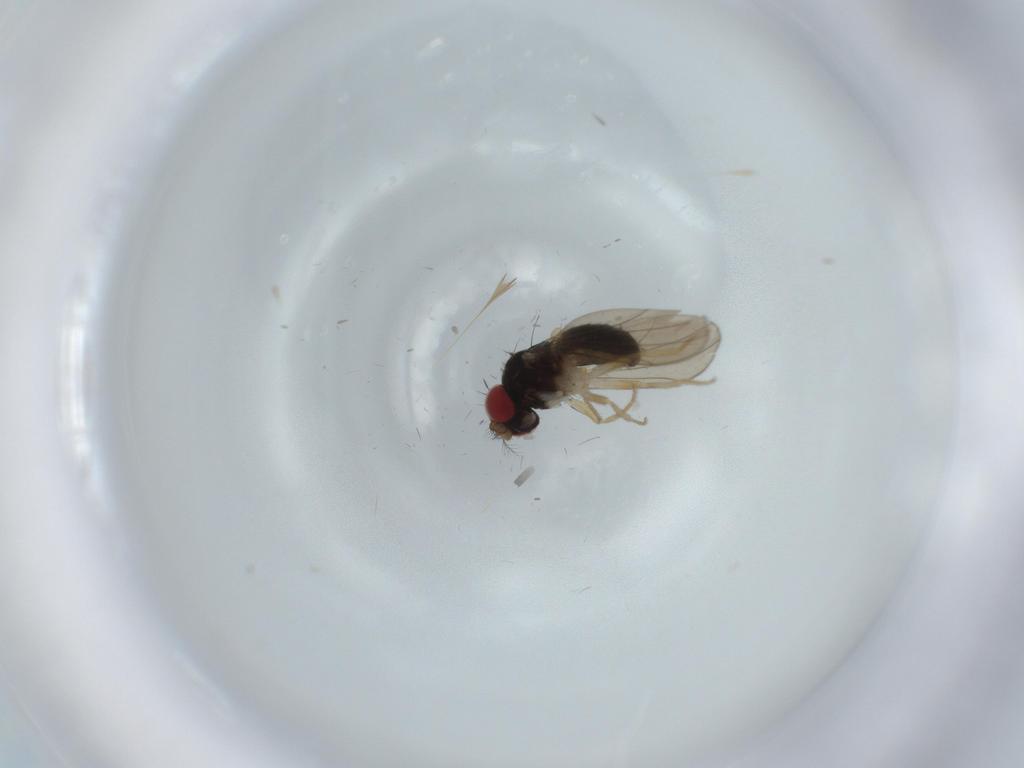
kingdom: Animalia
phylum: Arthropoda
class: Insecta
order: Diptera
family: Drosophilidae
